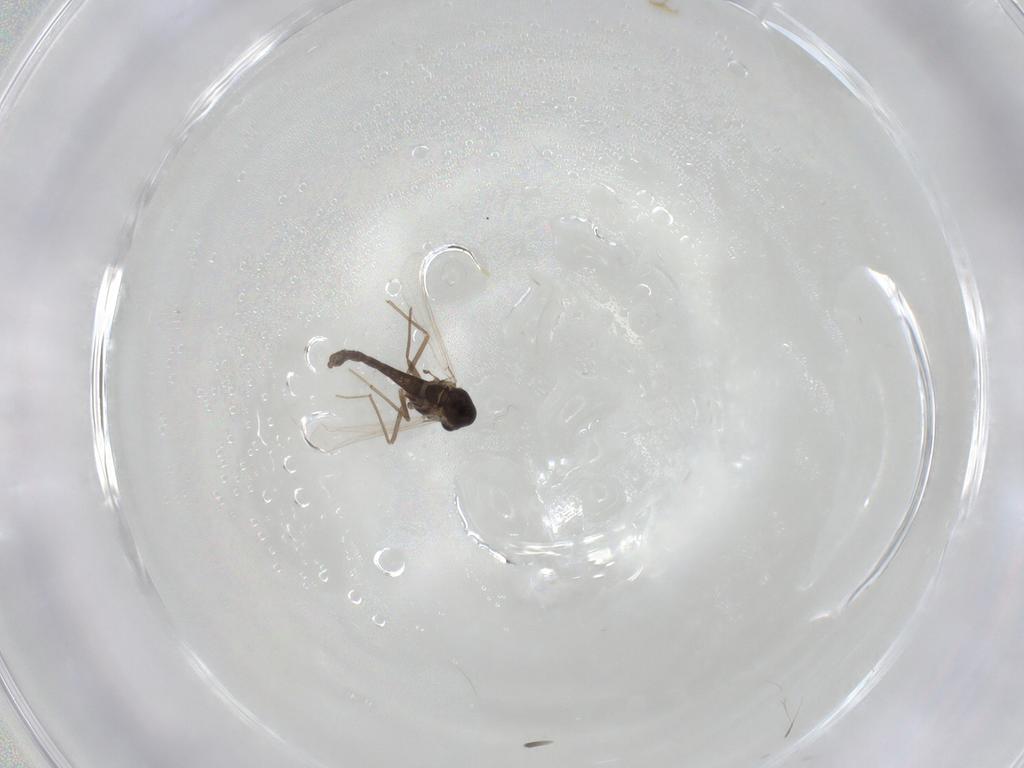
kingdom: Animalia
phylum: Arthropoda
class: Insecta
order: Diptera
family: Chironomidae
